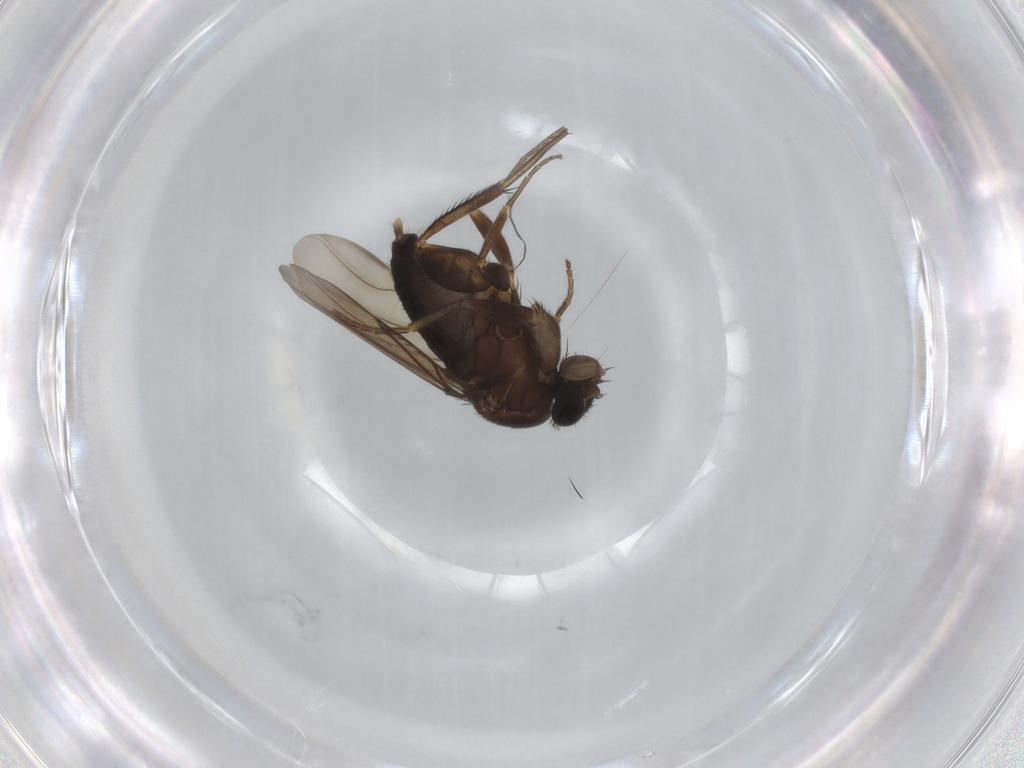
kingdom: Animalia
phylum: Arthropoda
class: Insecta
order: Diptera
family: Phoridae
